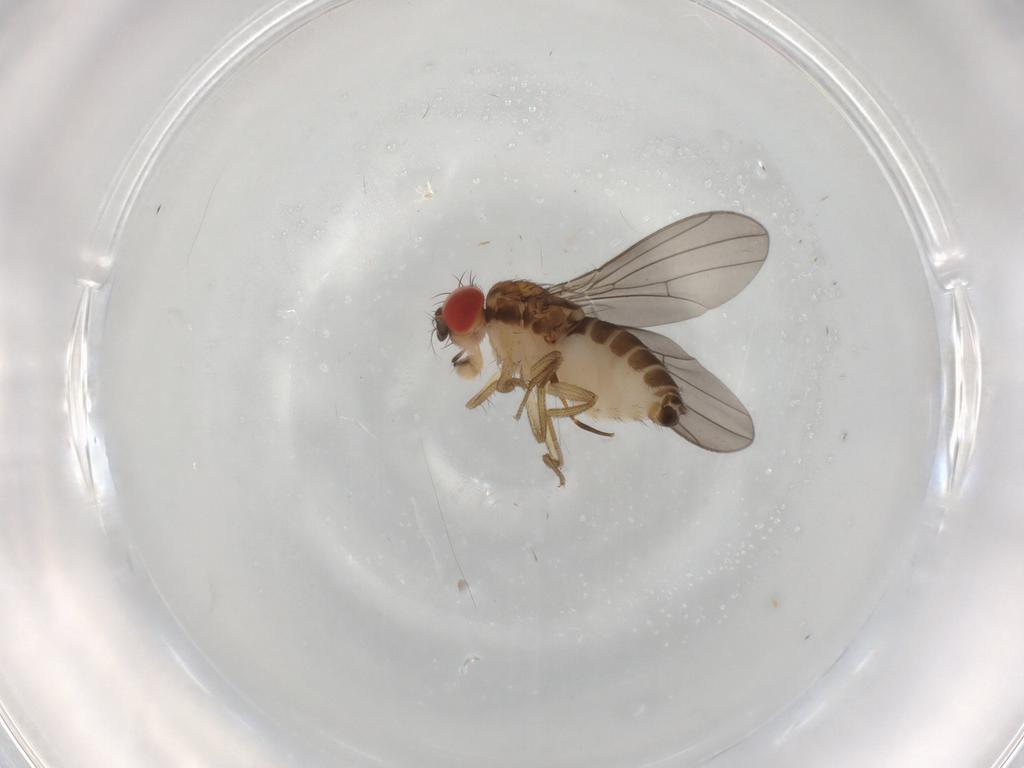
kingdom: Animalia
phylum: Arthropoda
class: Insecta
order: Diptera
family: Drosophilidae
